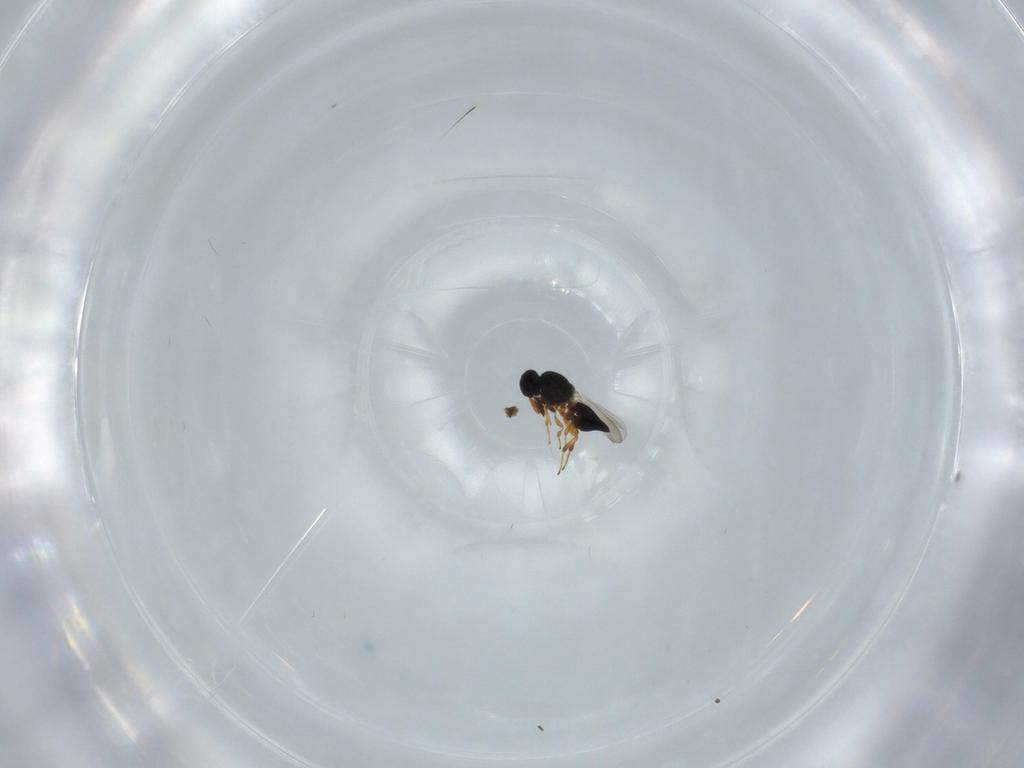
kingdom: Animalia
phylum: Arthropoda
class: Insecta
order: Hymenoptera
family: Platygastridae
